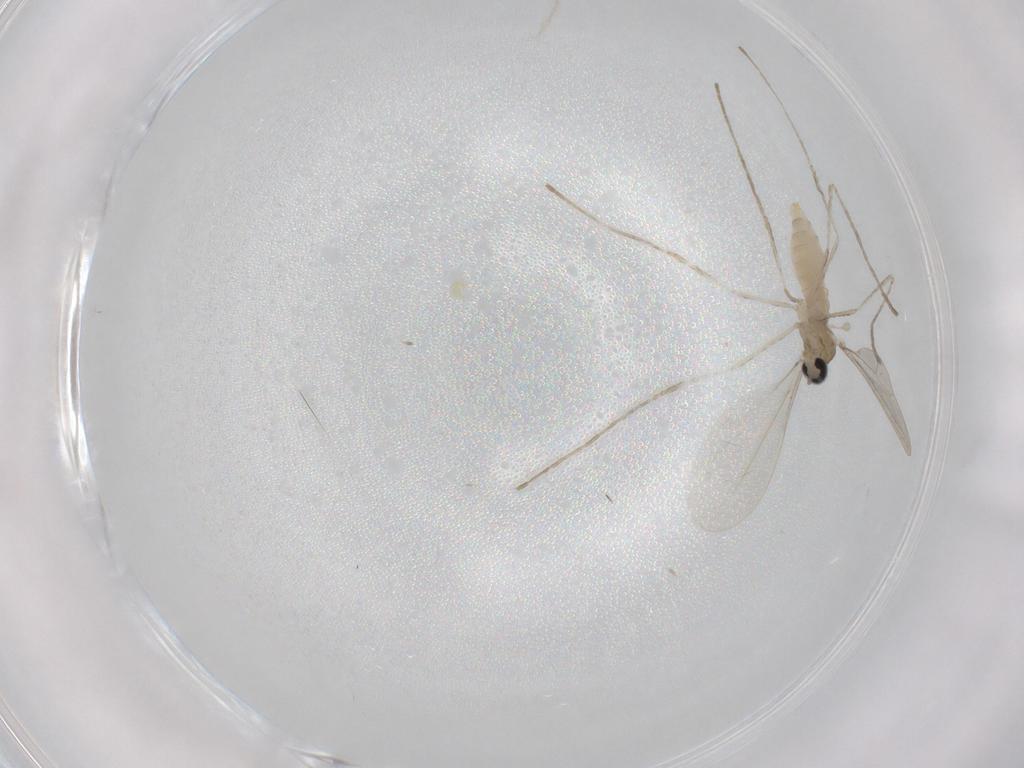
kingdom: Animalia
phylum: Arthropoda
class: Insecta
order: Diptera
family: Cecidomyiidae
